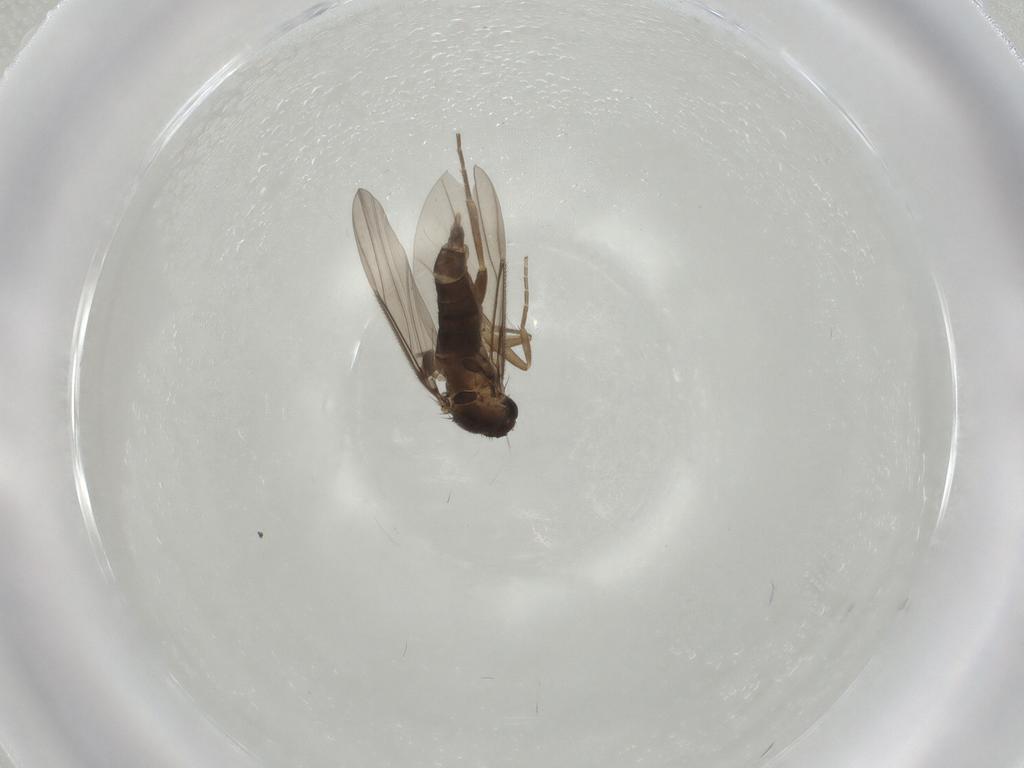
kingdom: Animalia
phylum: Arthropoda
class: Insecta
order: Diptera
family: Phoridae
